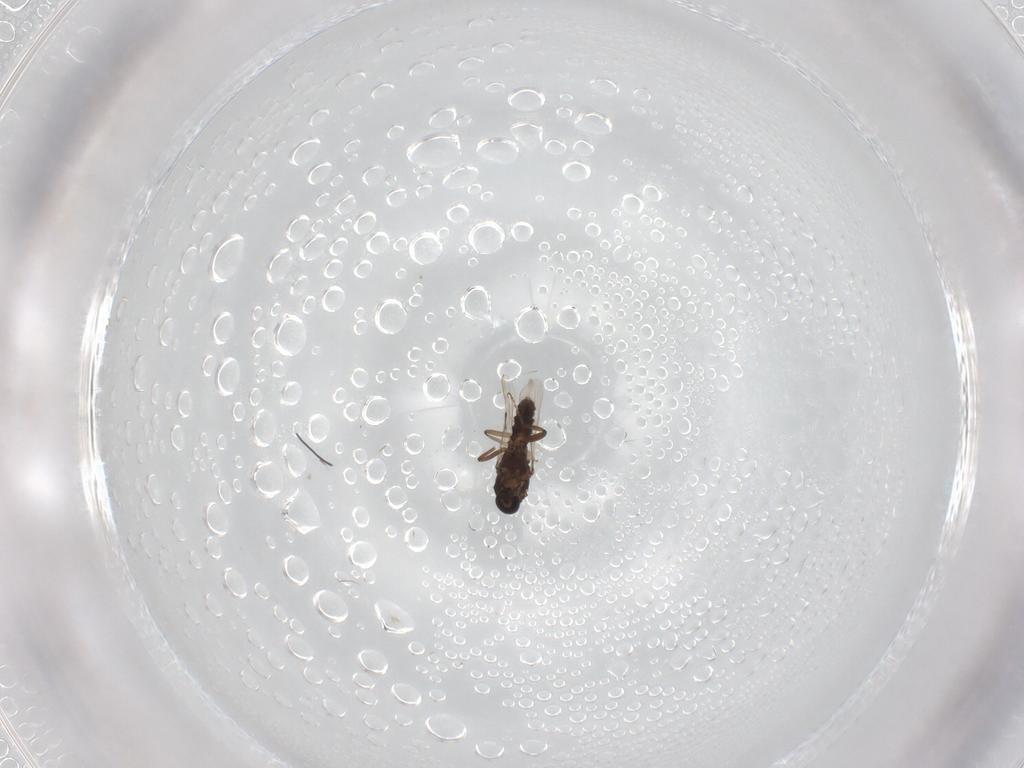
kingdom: Animalia
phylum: Arthropoda
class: Insecta
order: Diptera
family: Ceratopogonidae
